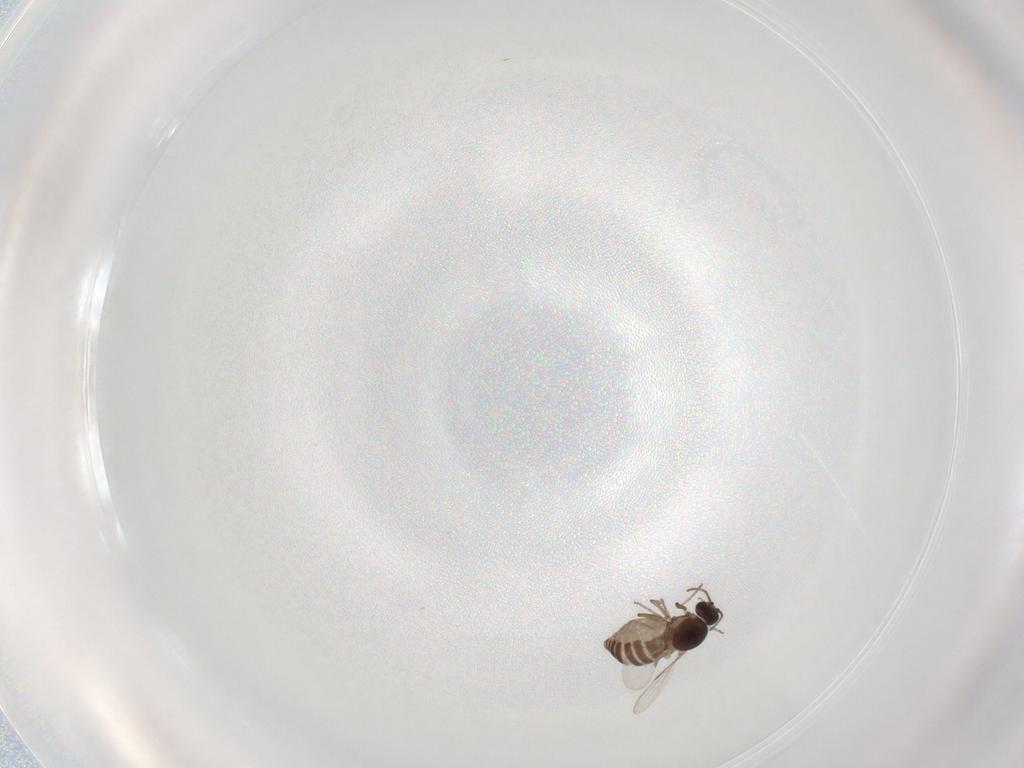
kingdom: Animalia
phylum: Arthropoda
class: Insecta
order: Diptera
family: Ceratopogonidae
